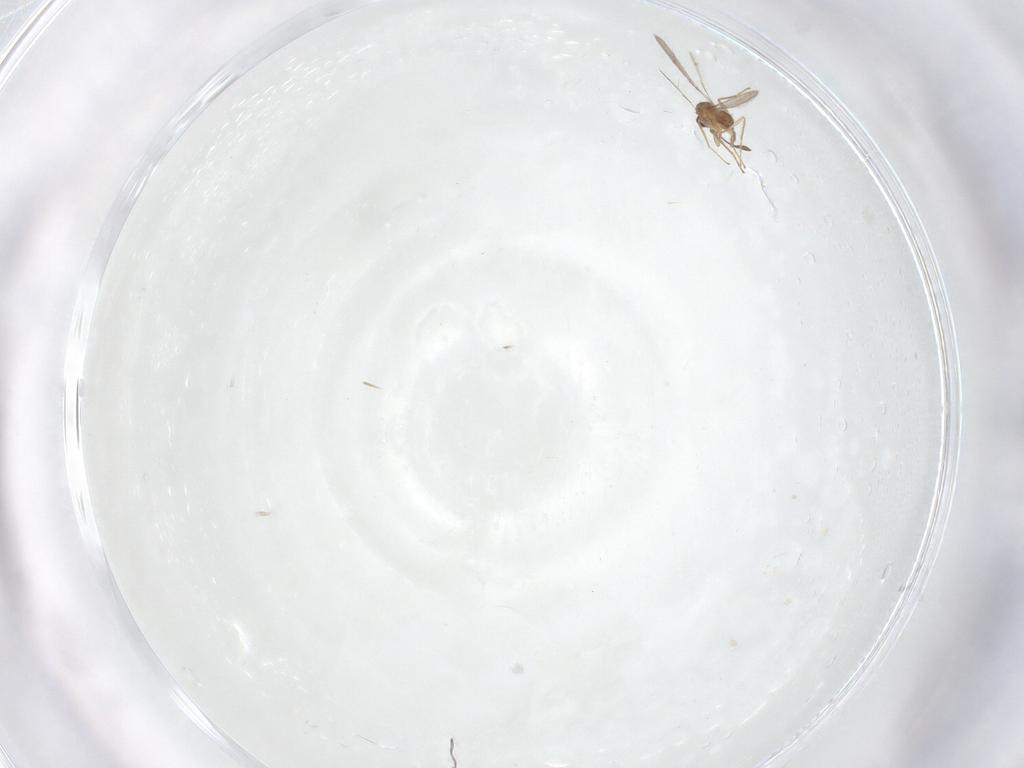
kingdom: Animalia
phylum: Arthropoda
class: Insecta
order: Hymenoptera
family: Mymaridae
